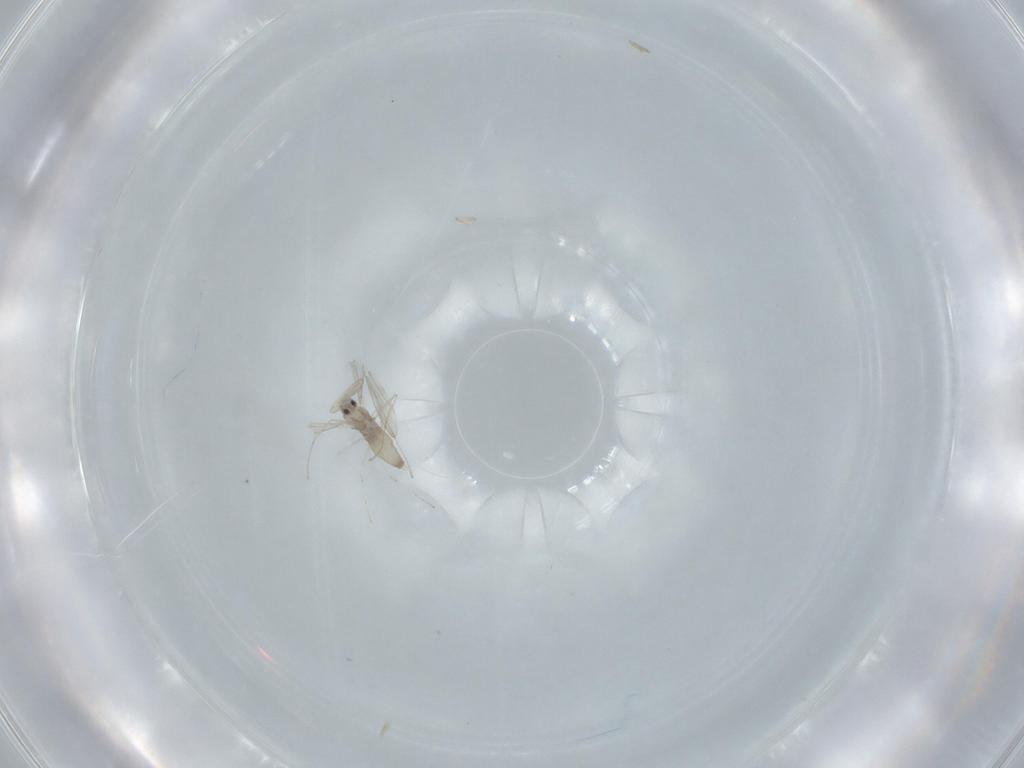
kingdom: Animalia
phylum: Arthropoda
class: Insecta
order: Diptera
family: Cecidomyiidae
